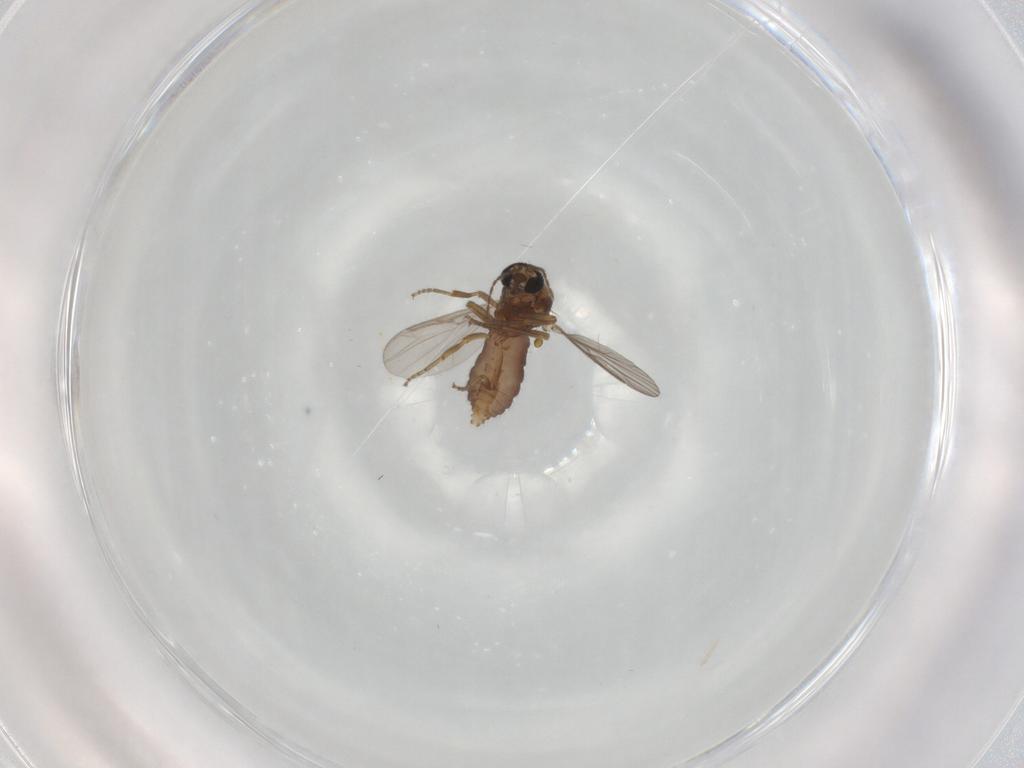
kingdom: Animalia
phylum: Arthropoda
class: Insecta
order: Diptera
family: Ceratopogonidae
